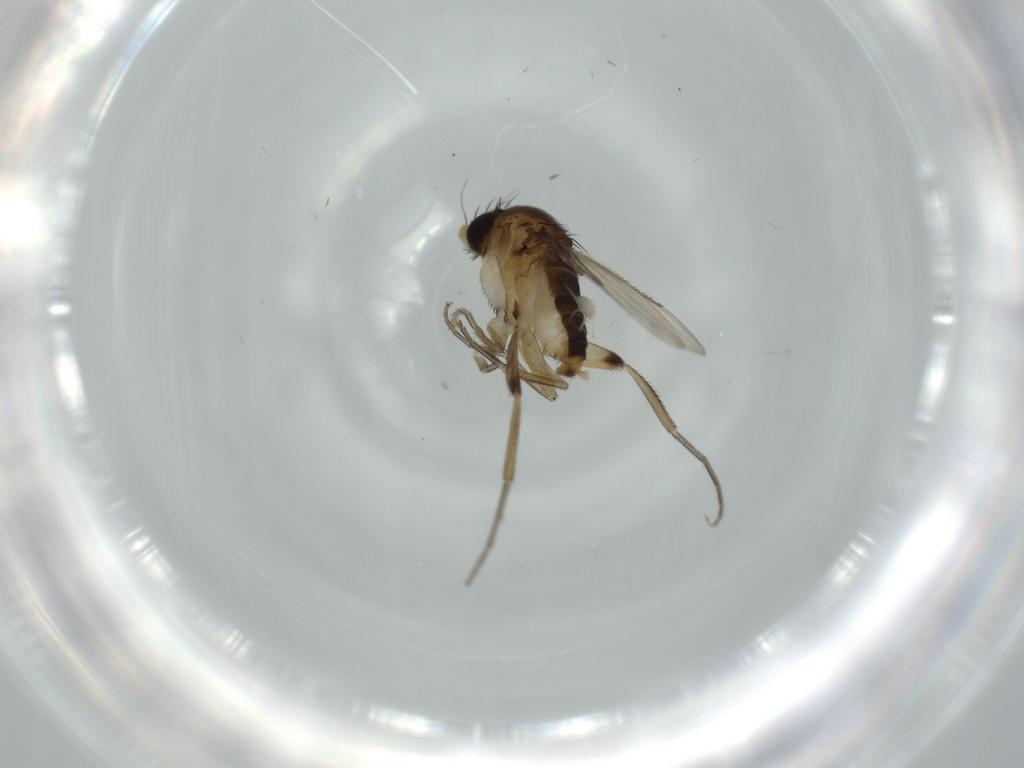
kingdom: Animalia
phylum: Arthropoda
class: Insecta
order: Diptera
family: Phoridae
